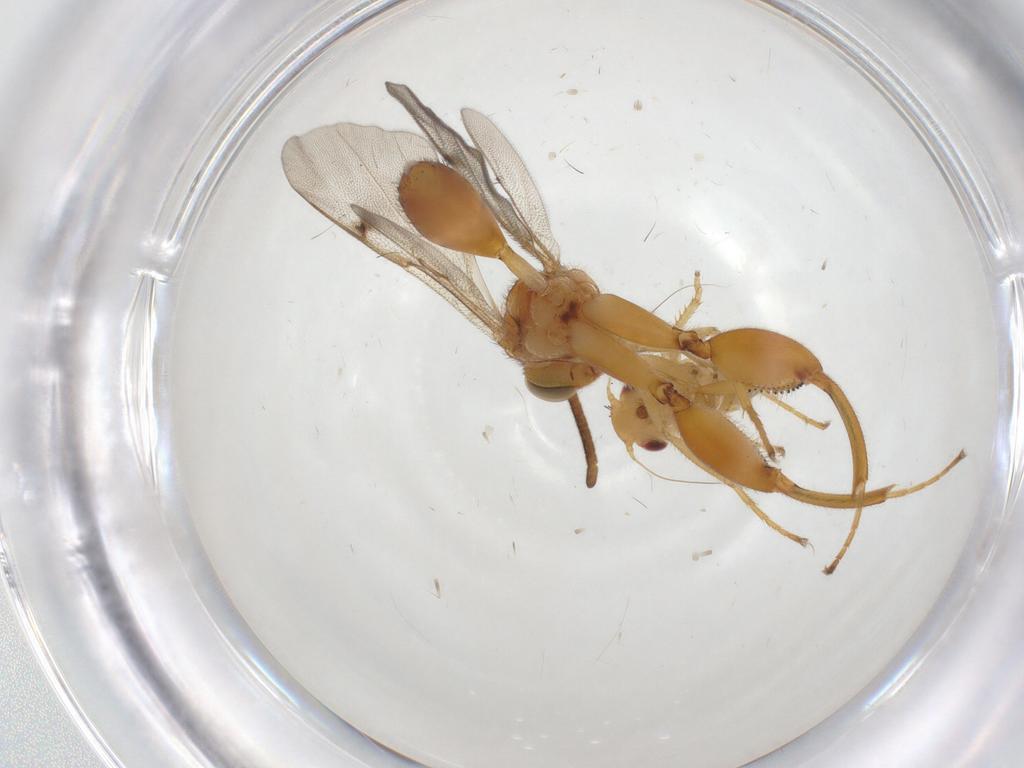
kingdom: Animalia
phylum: Arthropoda
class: Insecta
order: Hymenoptera
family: Chalcididae
